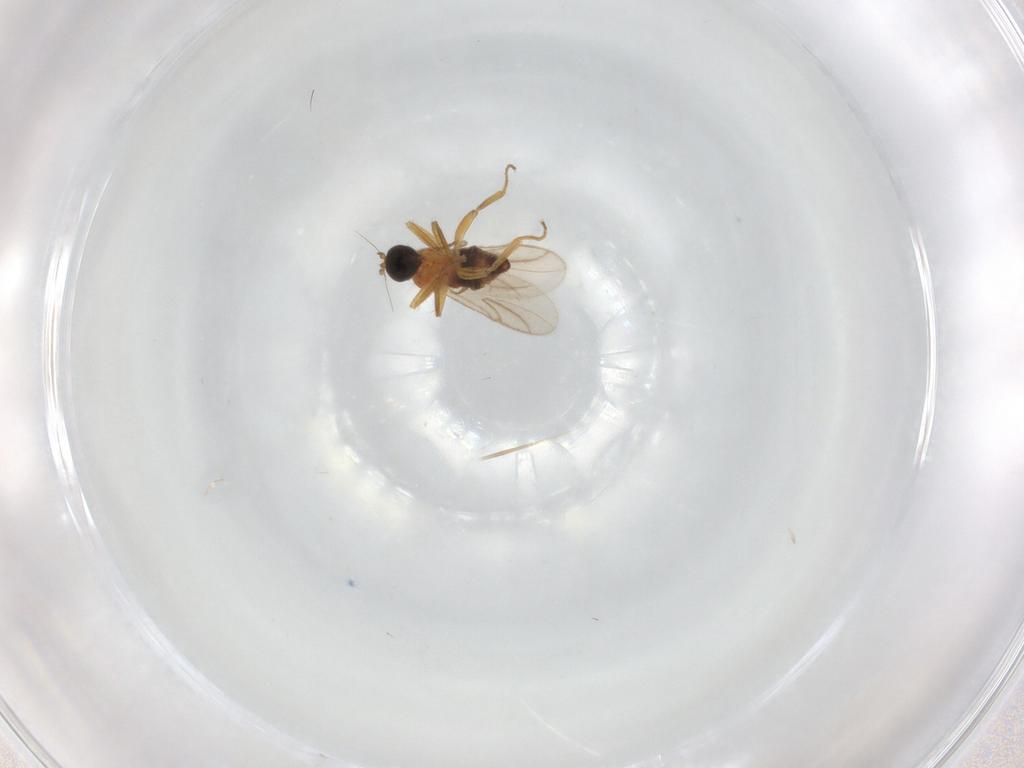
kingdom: Animalia
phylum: Arthropoda
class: Insecta
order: Diptera
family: Hybotidae
